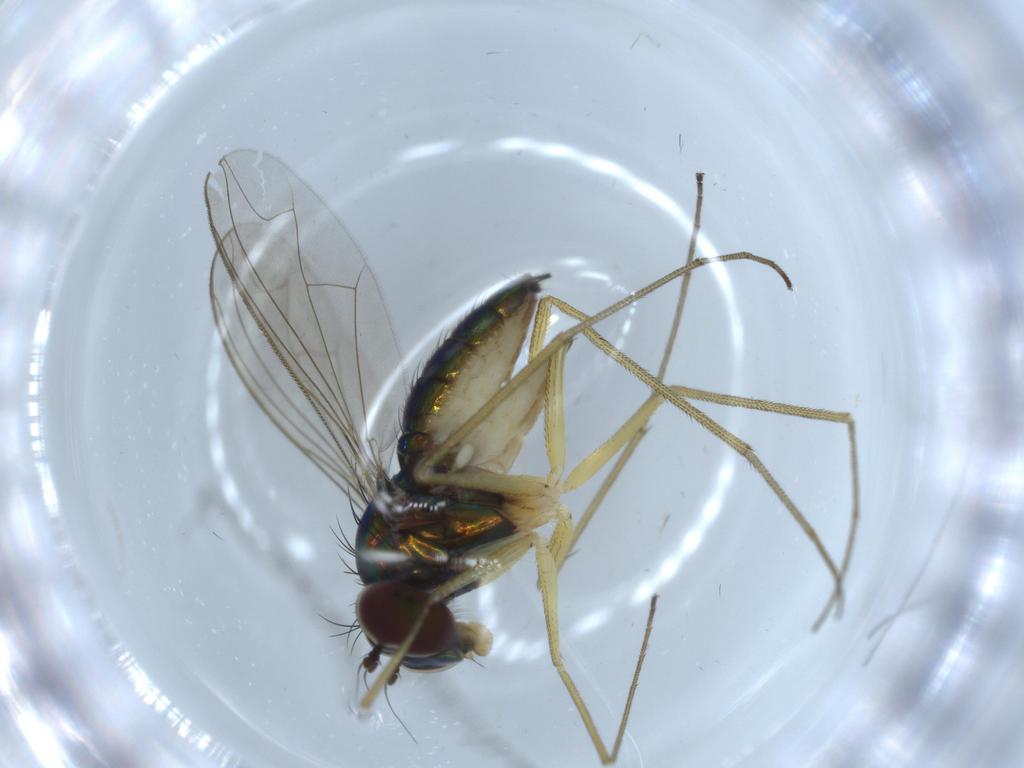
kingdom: Animalia
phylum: Arthropoda
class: Insecta
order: Diptera
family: Dolichopodidae
